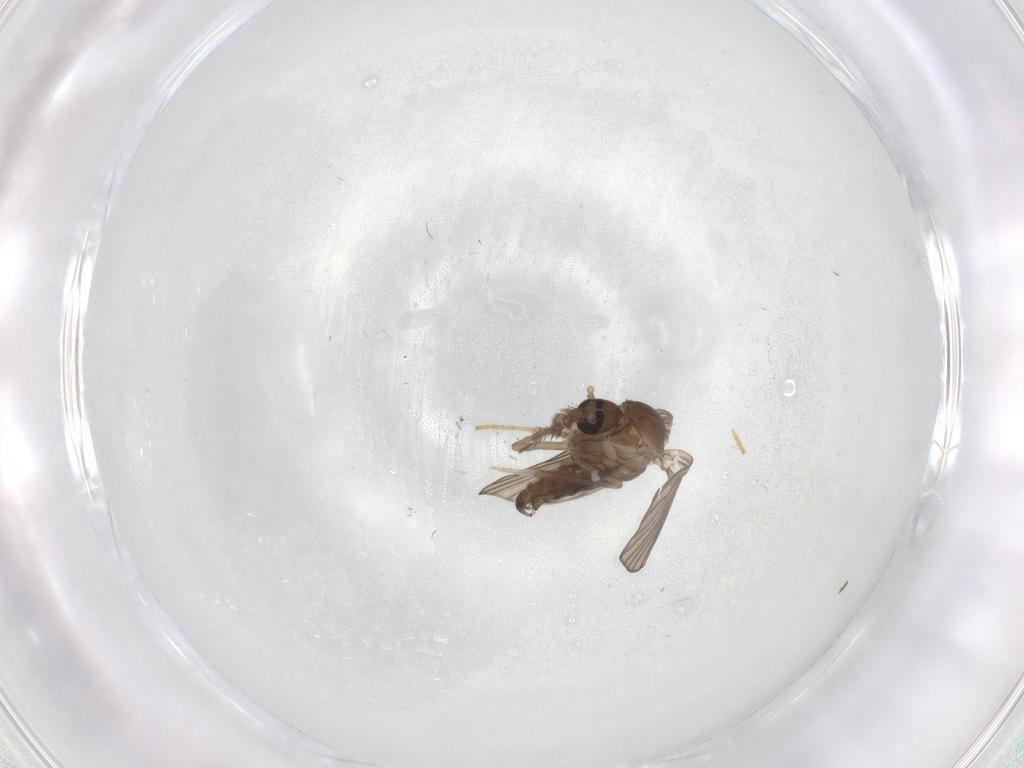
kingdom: Animalia
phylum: Arthropoda
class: Insecta
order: Diptera
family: Psychodidae
